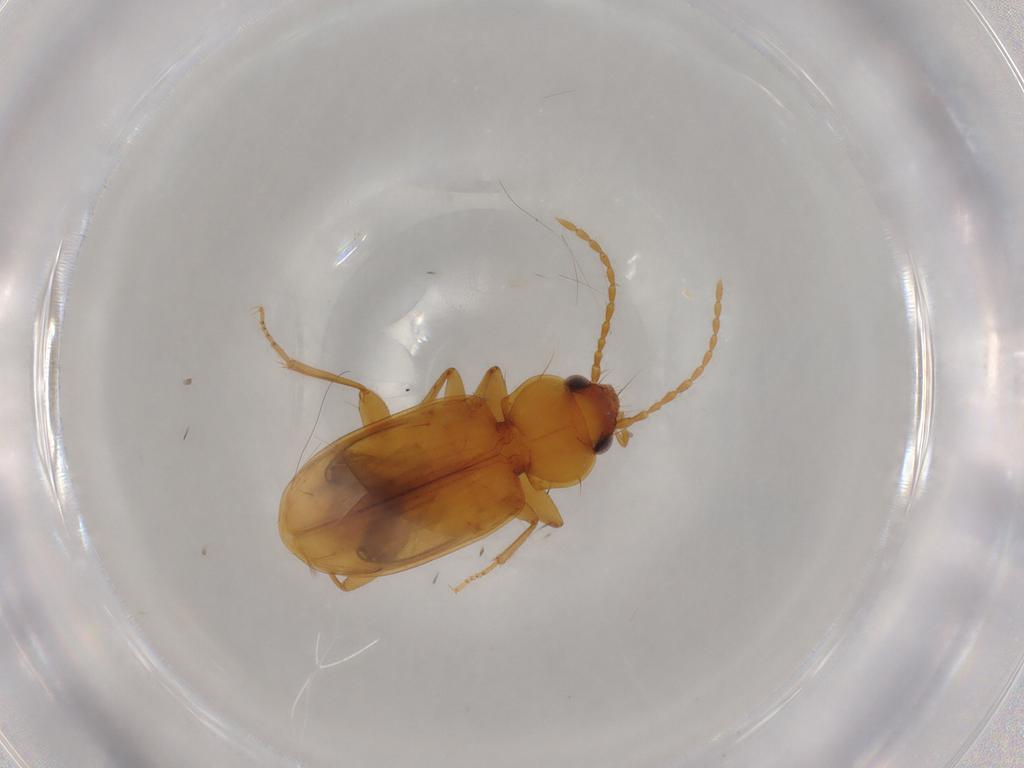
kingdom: Animalia
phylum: Arthropoda
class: Insecta
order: Coleoptera
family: Carabidae
